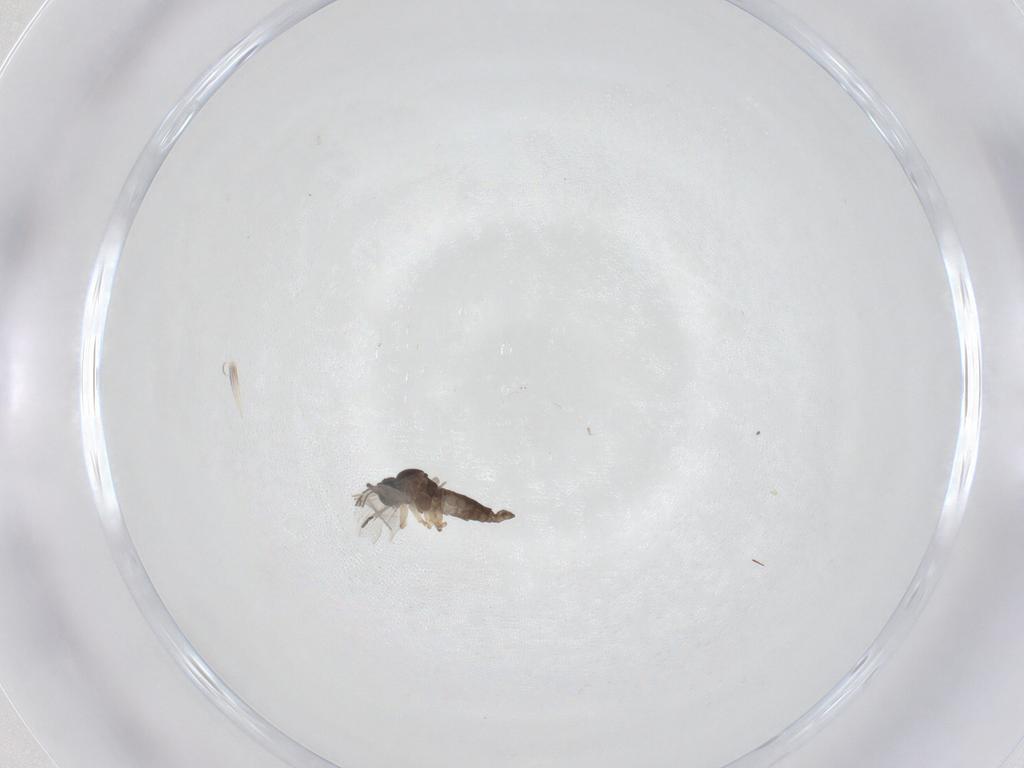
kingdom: Animalia
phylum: Arthropoda
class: Insecta
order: Diptera
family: Sciaridae
